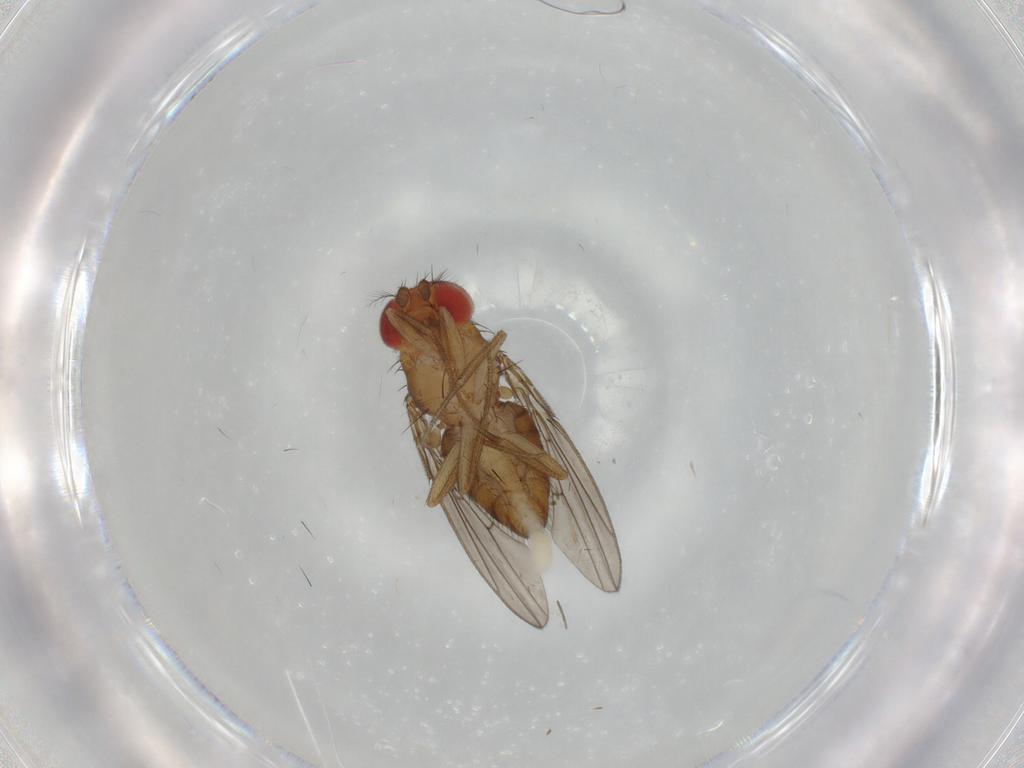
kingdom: Animalia
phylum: Arthropoda
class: Insecta
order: Diptera
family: Drosophilidae
